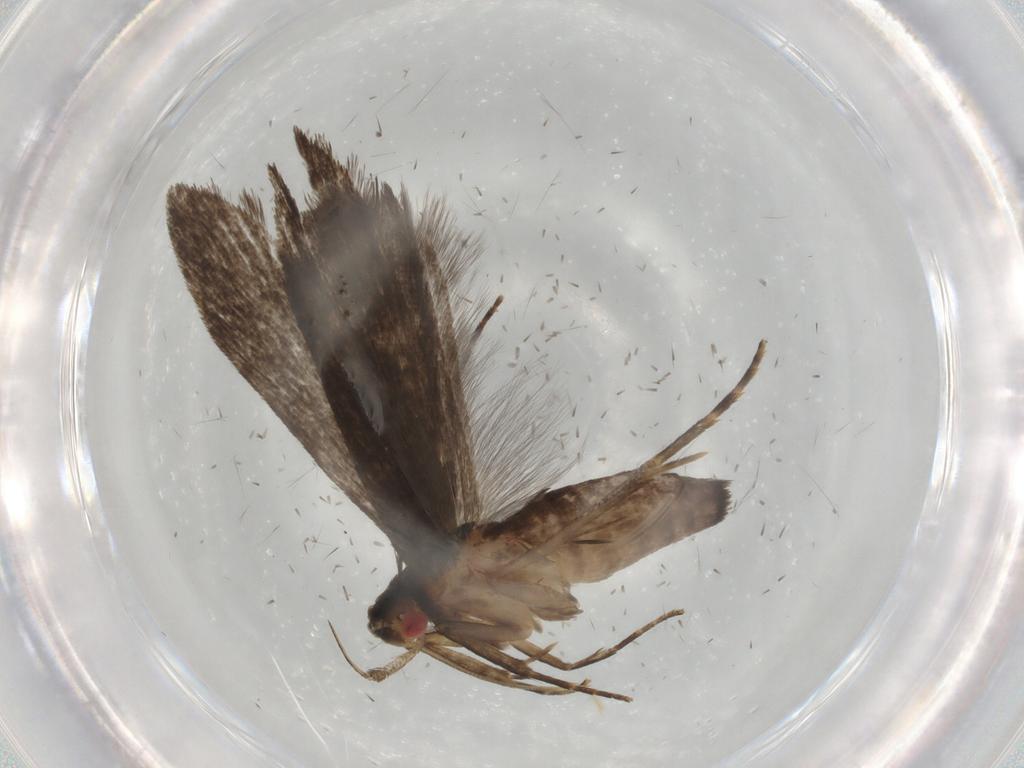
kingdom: Animalia
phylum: Arthropoda
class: Insecta
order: Lepidoptera
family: Gelechiidae
